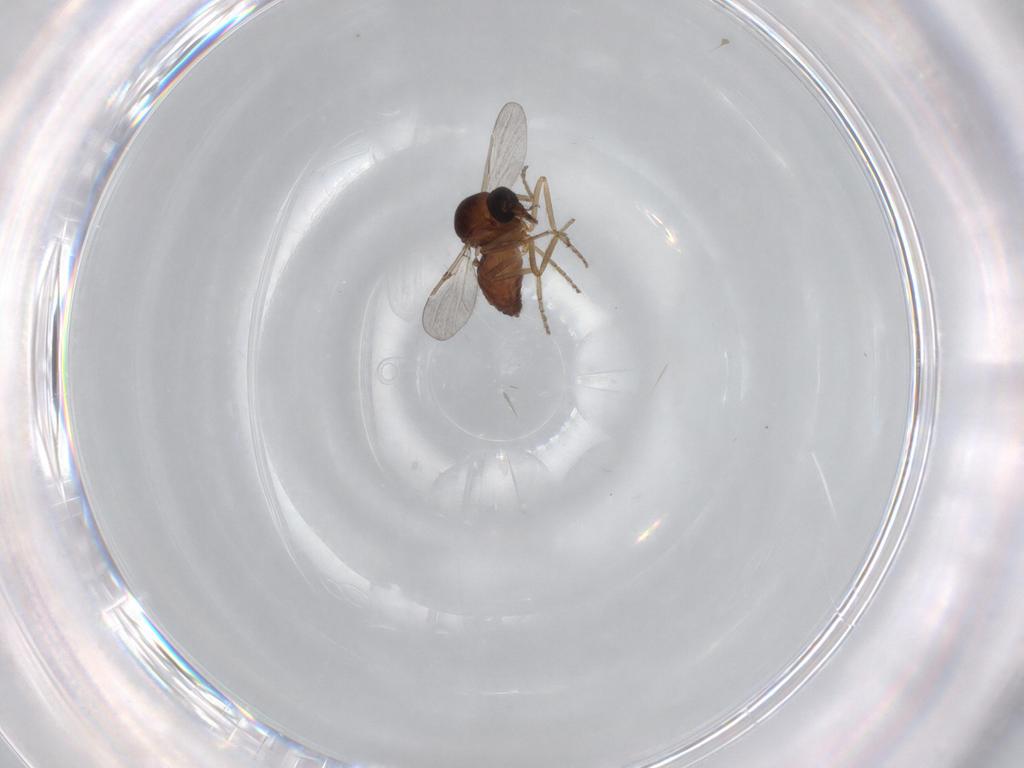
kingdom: Animalia
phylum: Arthropoda
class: Insecta
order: Diptera
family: Ceratopogonidae
